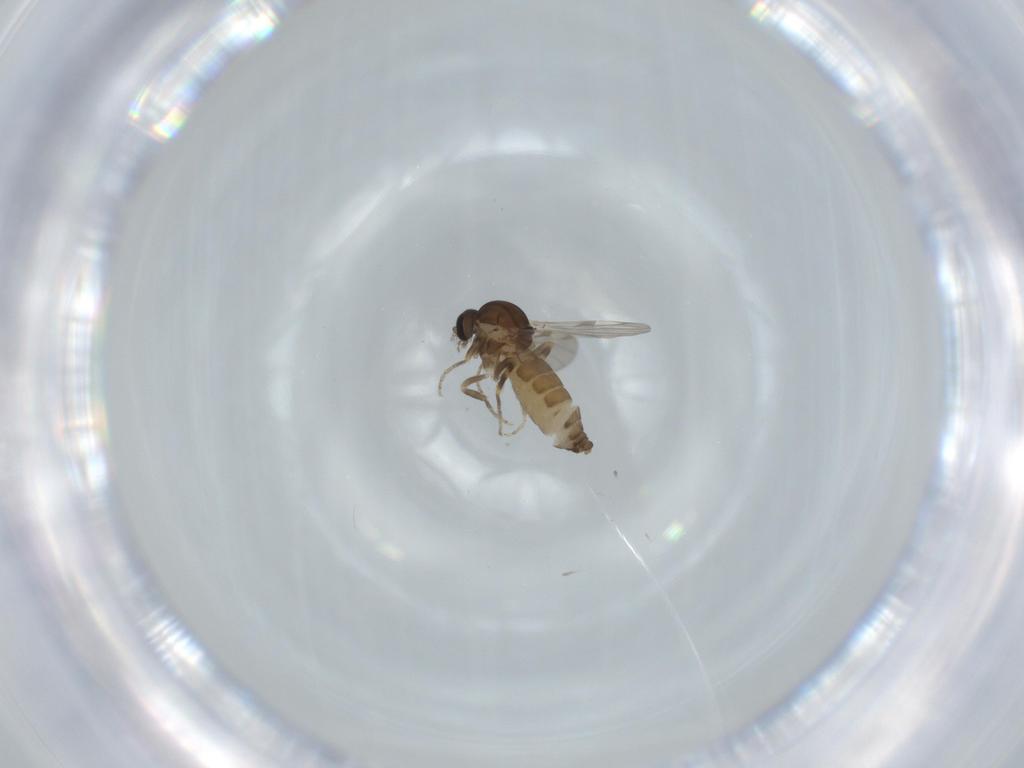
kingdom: Animalia
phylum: Arthropoda
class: Insecta
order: Diptera
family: Ceratopogonidae
